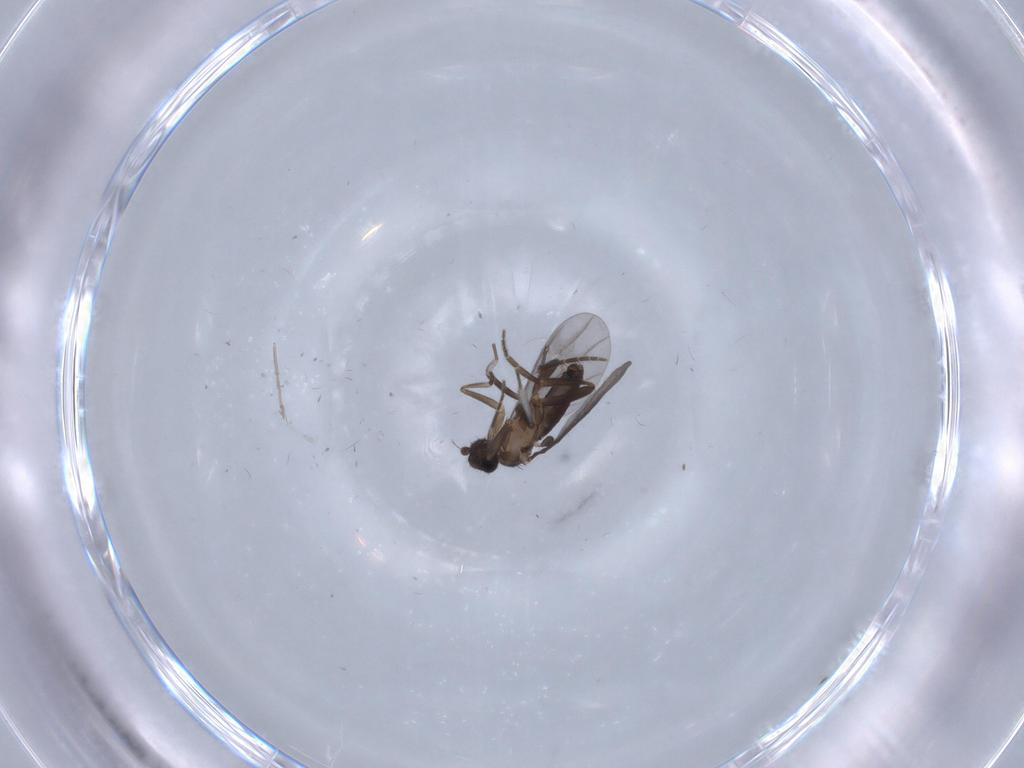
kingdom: Animalia
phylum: Arthropoda
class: Insecta
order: Diptera
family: Chironomidae
